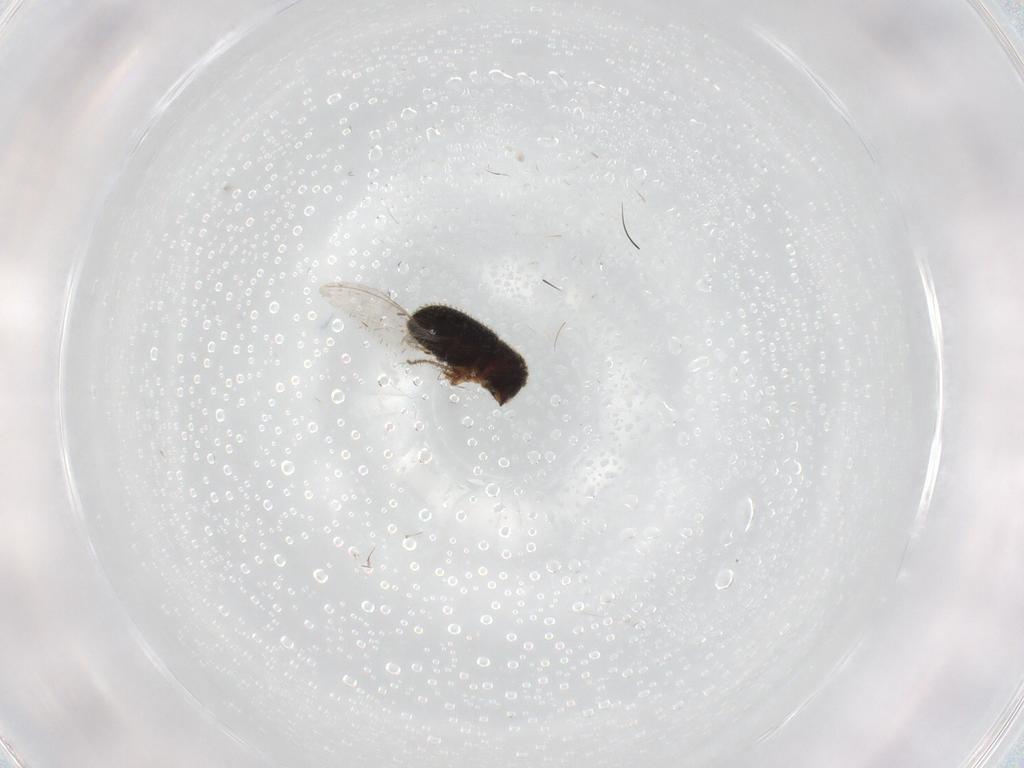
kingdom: Animalia
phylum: Arthropoda
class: Insecta
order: Coleoptera
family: Curculionidae
